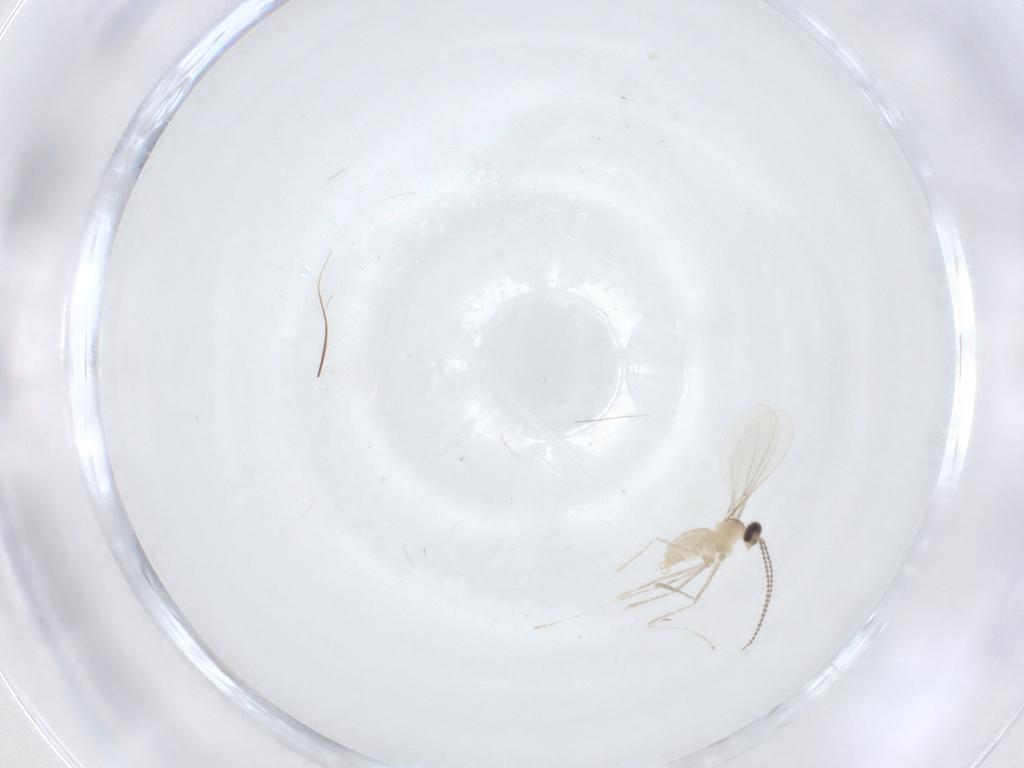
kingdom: Animalia
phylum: Arthropoda
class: Insecta
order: Diptera
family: Cecidomyiidae
